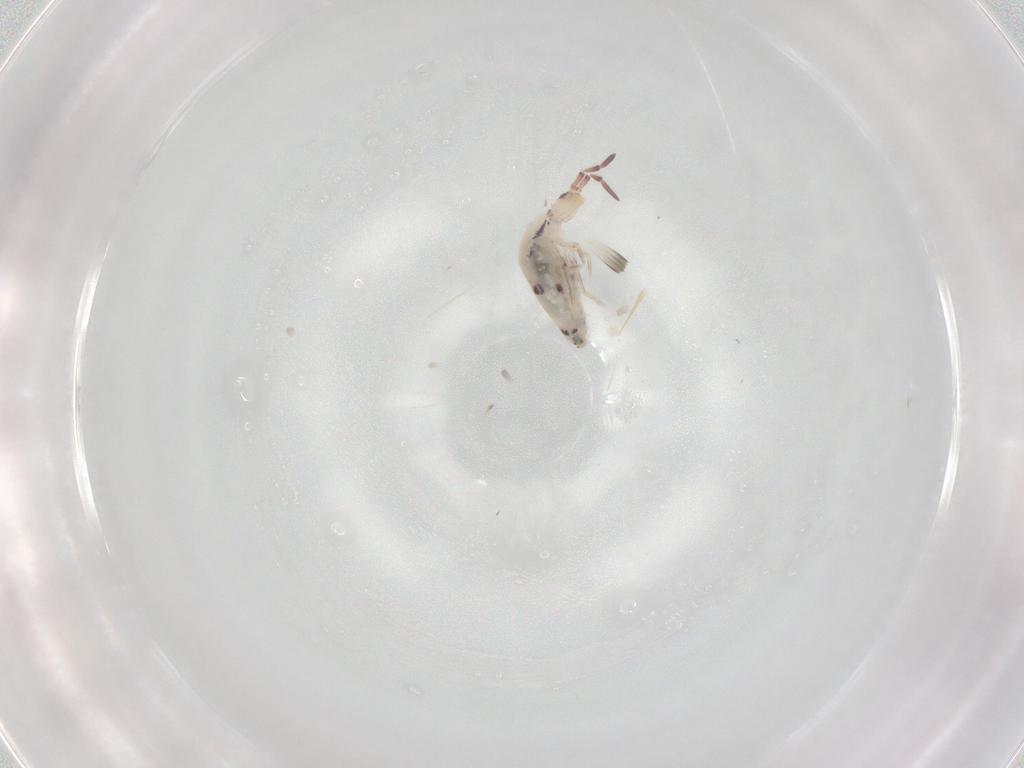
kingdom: Animalia
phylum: Arthropoda
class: Collembola
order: Entomobryomorpha
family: Entomobryidae
